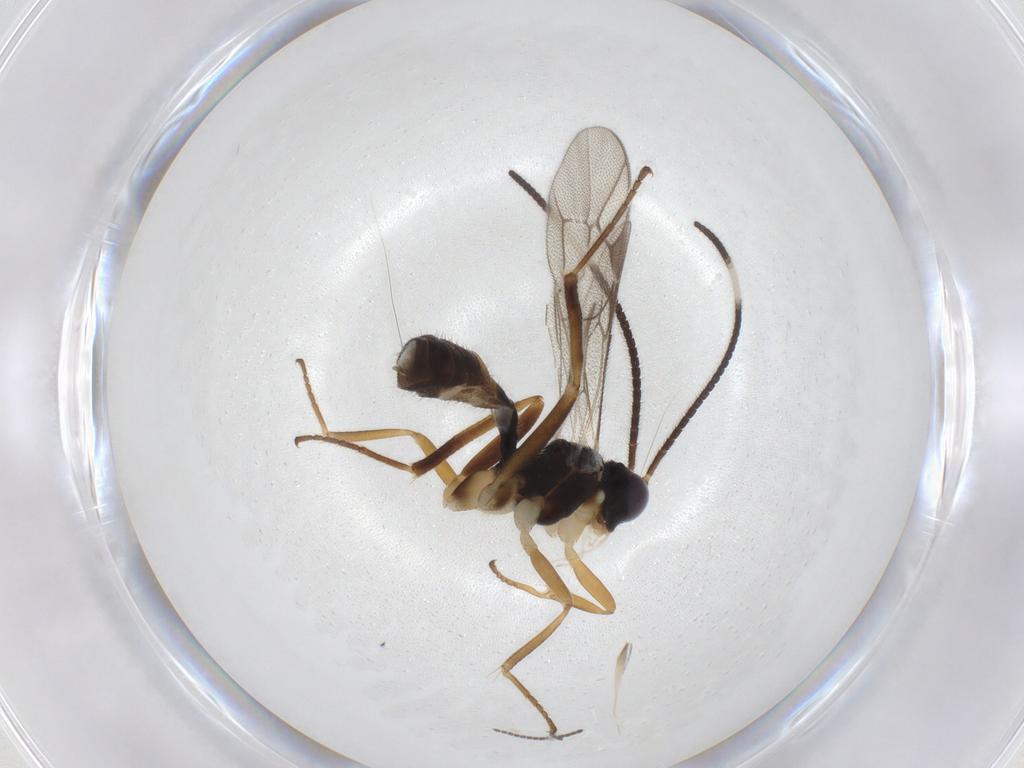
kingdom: Animalia
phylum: Arthropoda
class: Insecta
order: Hymenoptera
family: Ichneumonidae
